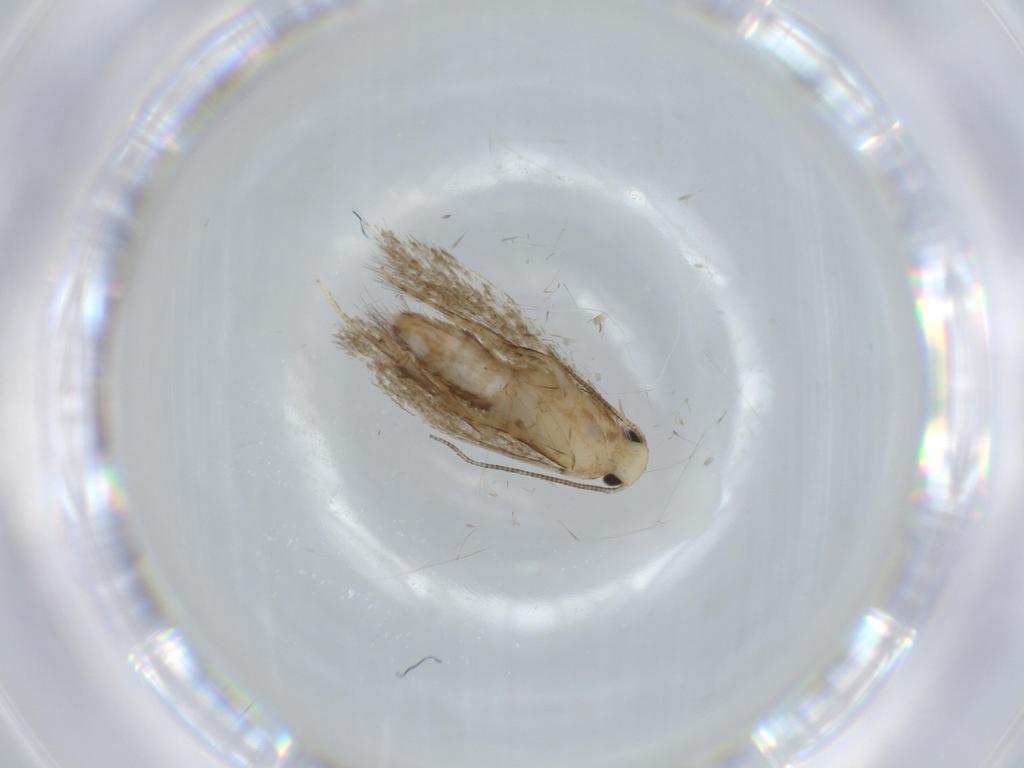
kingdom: Animalia
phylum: Arthropoda
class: Insecta
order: Lepidoptera
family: Tineidae
